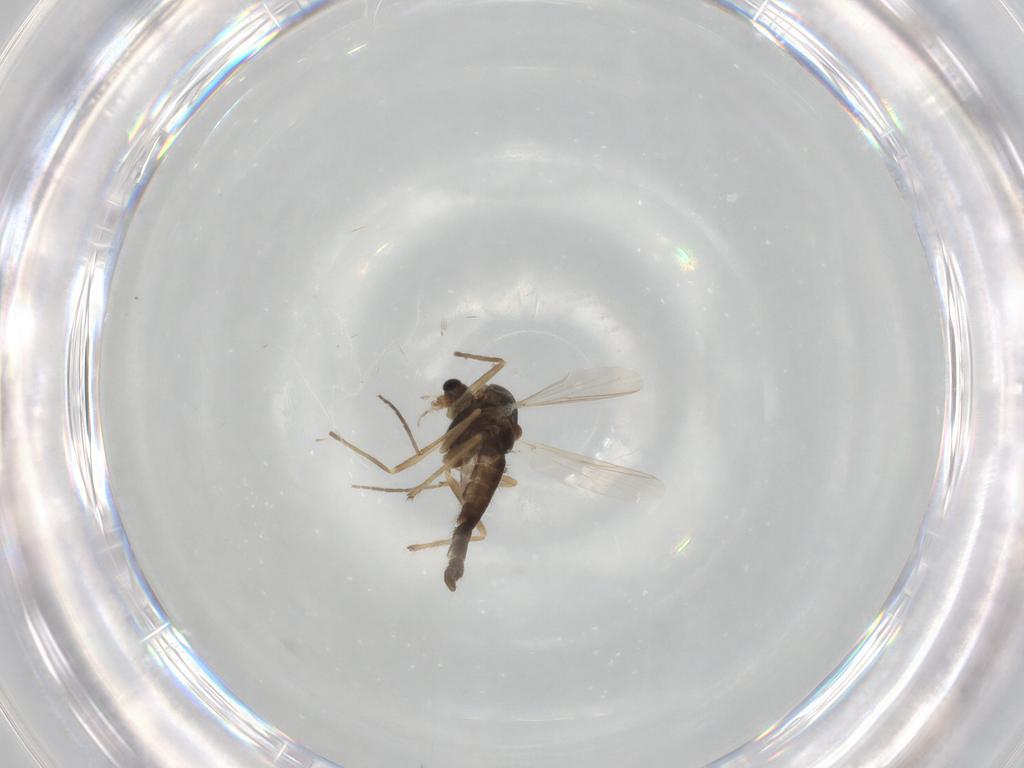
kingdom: Animalia
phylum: Arthropoda
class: Insecta
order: Diptera
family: Chironomidae
